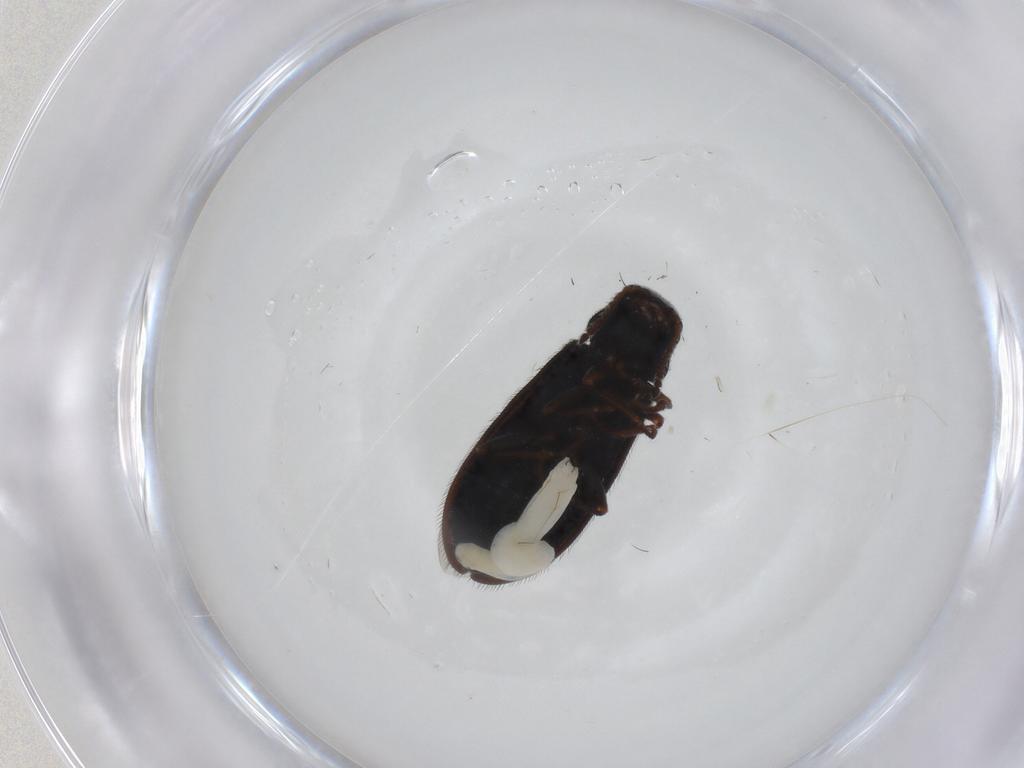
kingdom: Animalia
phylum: Arthropoda
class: Insecta
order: Coleoptera
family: Melyridae
